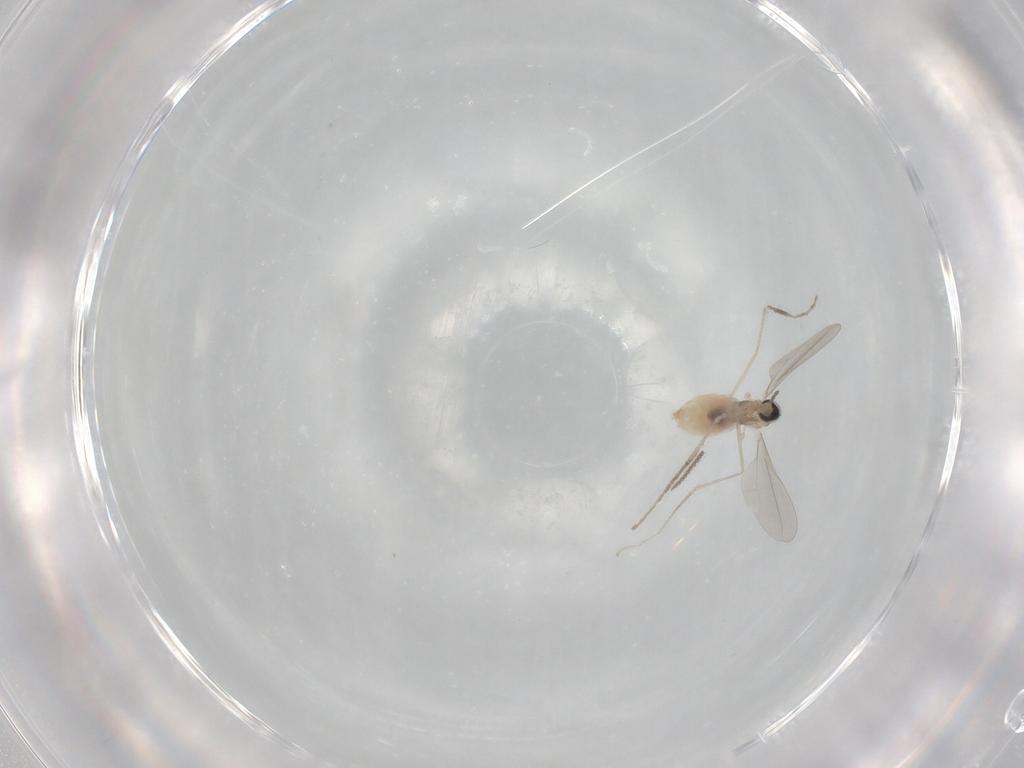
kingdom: Animalia
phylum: Arthropoda
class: Insecta
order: Diptera
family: Cecidomyiidae
